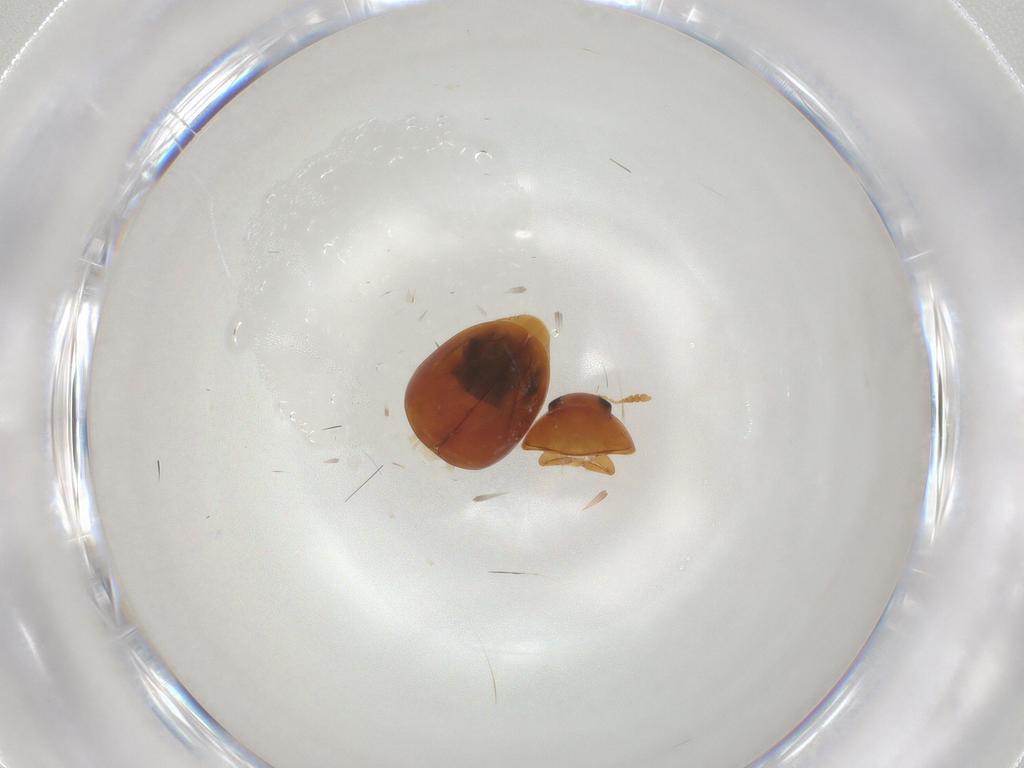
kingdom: Animalia
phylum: Arthropoda
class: Insecta
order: Coleoptera
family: Phalacridae
